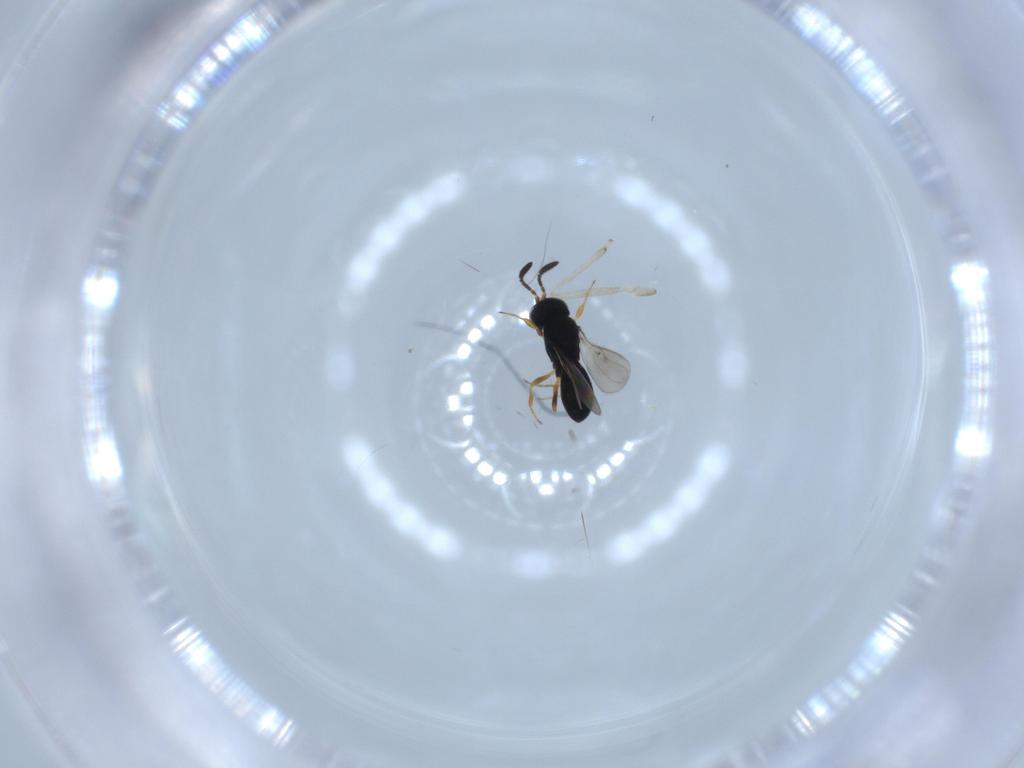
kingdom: Animalia
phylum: Arthropoda
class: Insecta
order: Hymenoptera
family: Scelionidae
